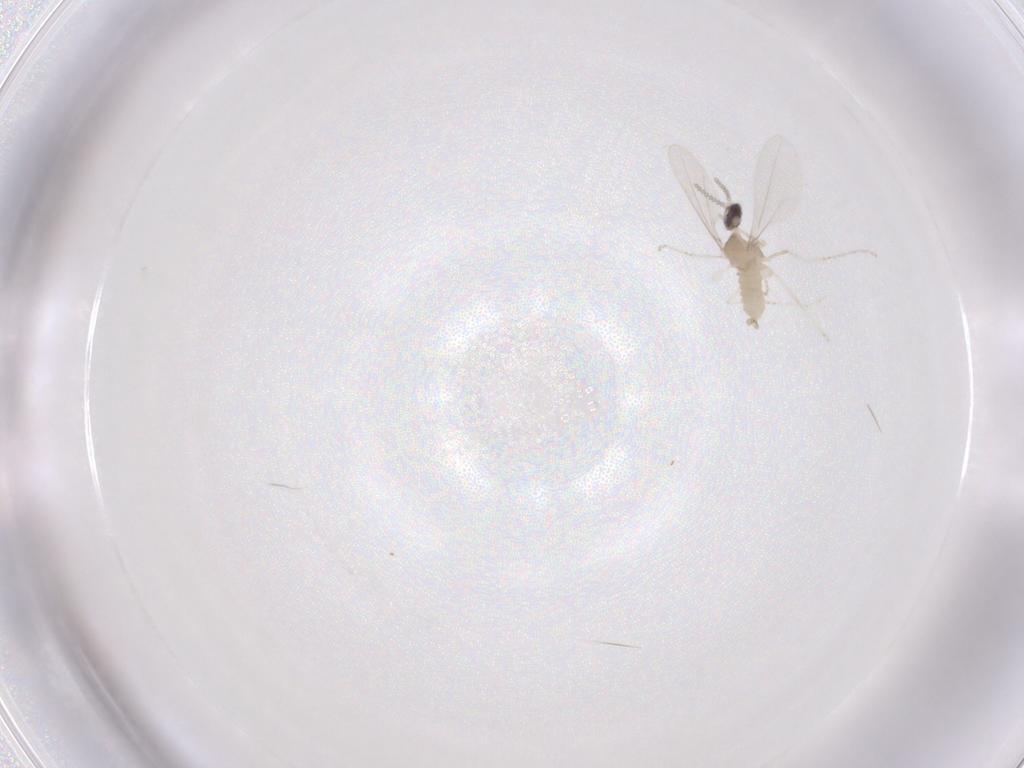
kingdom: Animalia
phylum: Arthropoda
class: Insecta
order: Diptera
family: Cecidomyiidae
